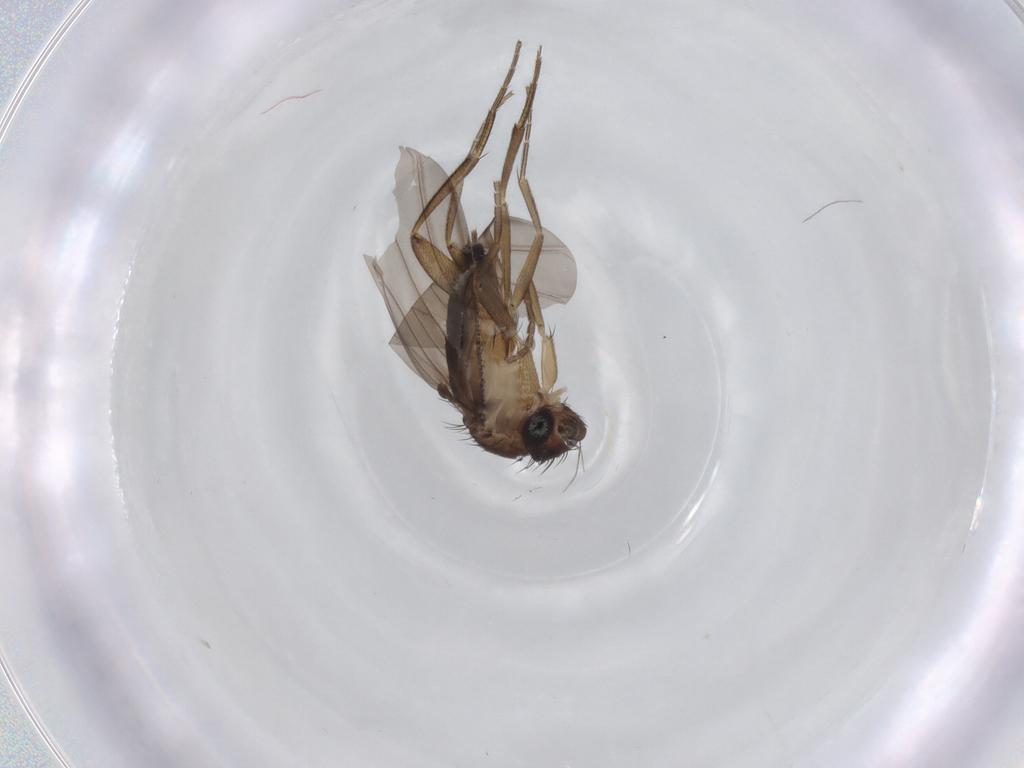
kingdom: Animalia
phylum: Arthropoda
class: Insecta
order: Diptera
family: Phoridae
